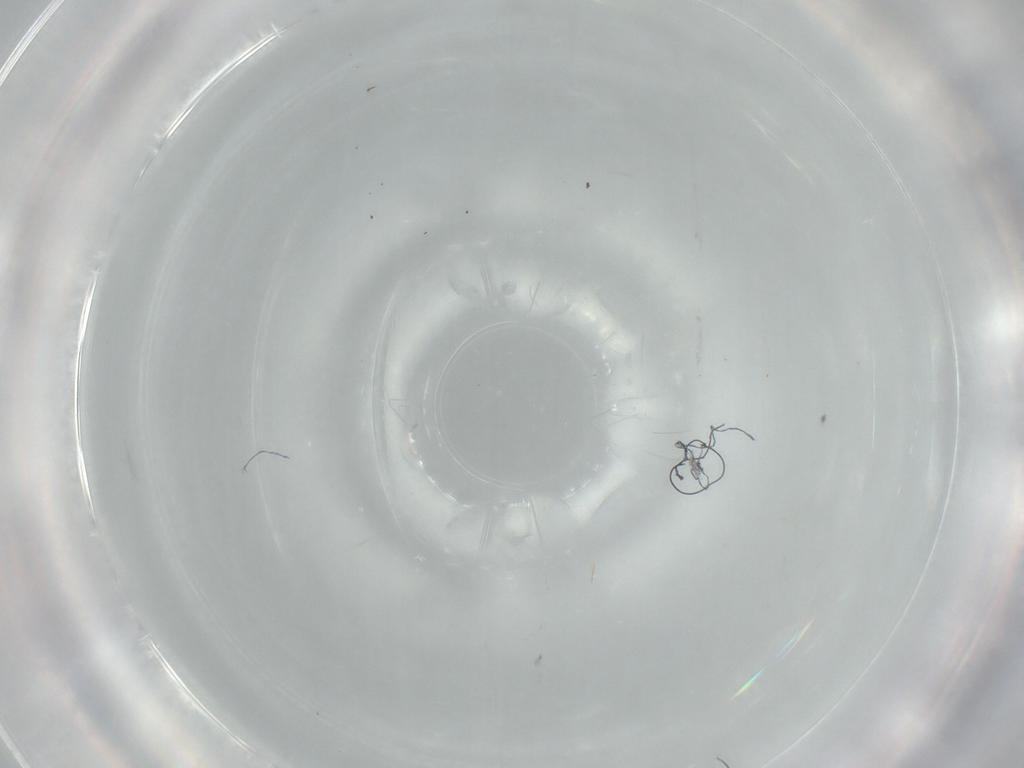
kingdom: Animalia
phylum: Arthropoda
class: Insecta
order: Diptera
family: Cecidomyiidae
